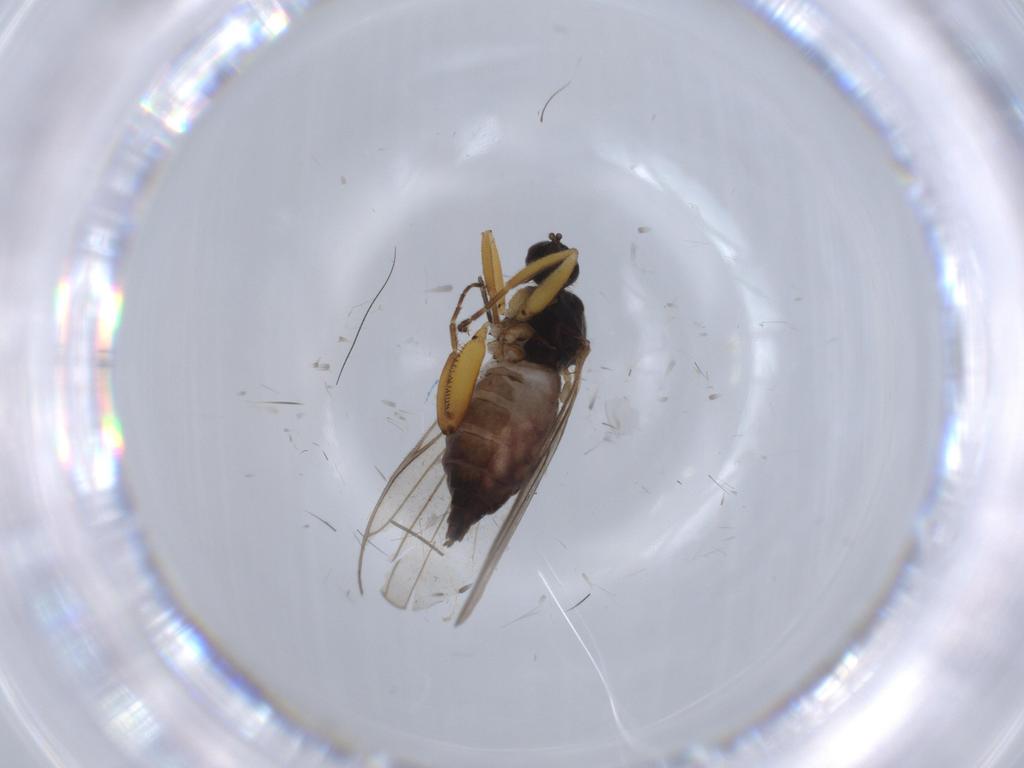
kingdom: Animalia
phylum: Arthropoda
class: Insecta
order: Diptera
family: Hybotidae
